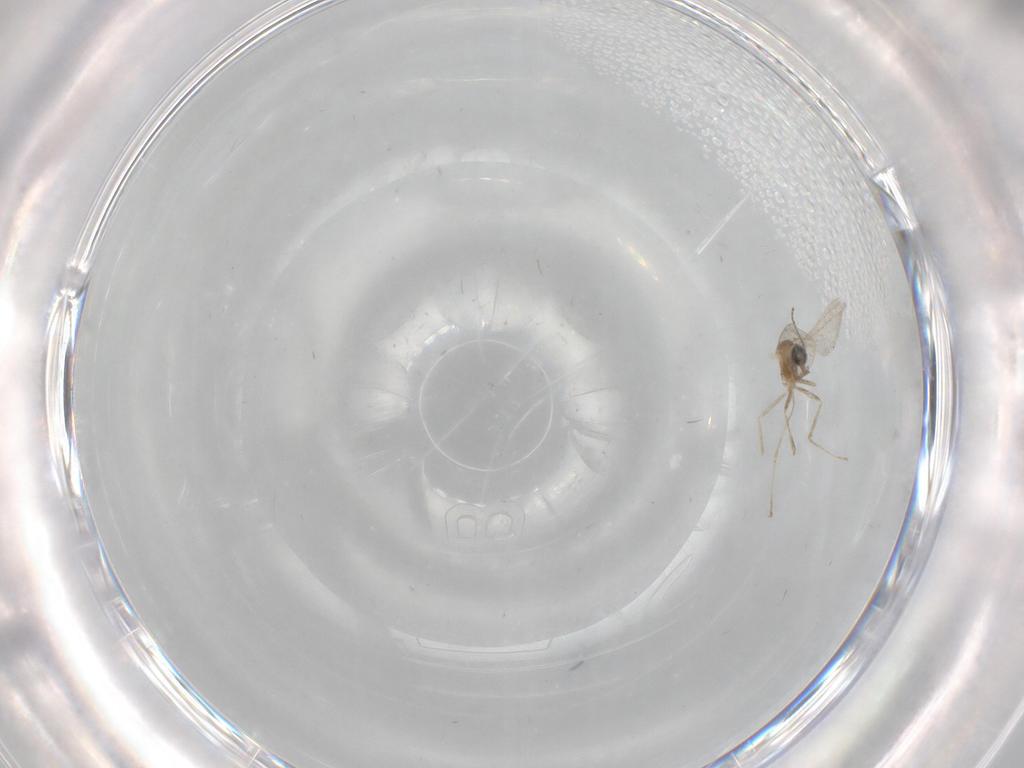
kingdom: Animalia
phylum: Arthropoda
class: Insecta
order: Diptera
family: Cecidomyiidae
